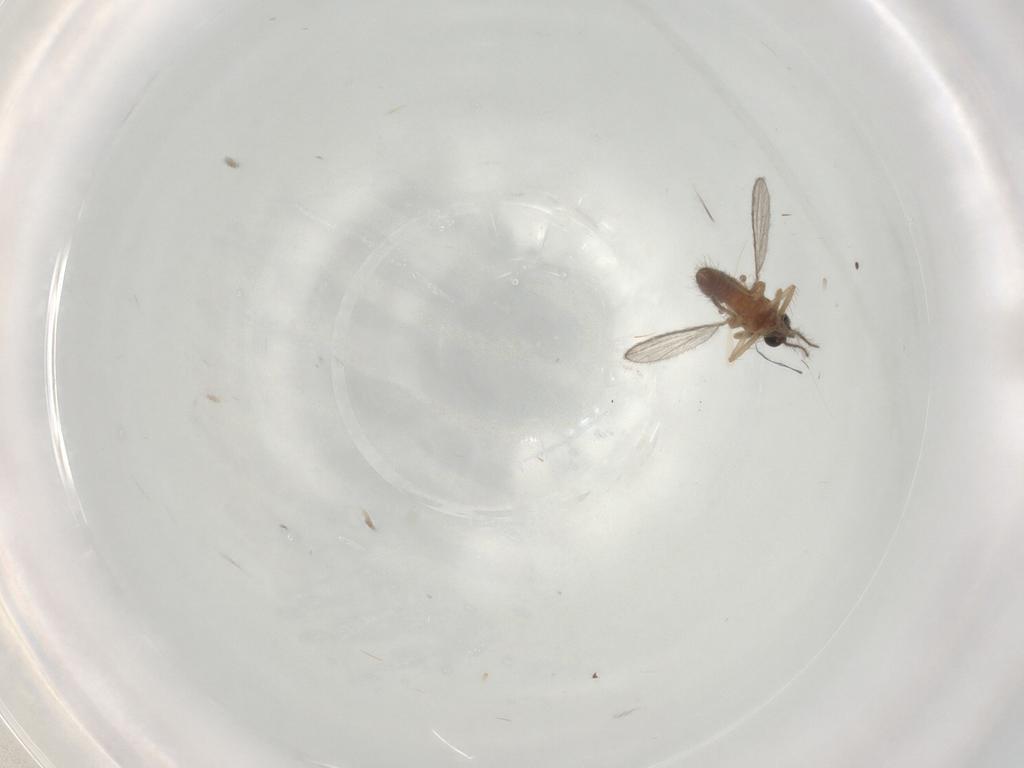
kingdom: Animalia
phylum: Arthropoda
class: Insecta
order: Diptera
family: Ceratopogonidae
